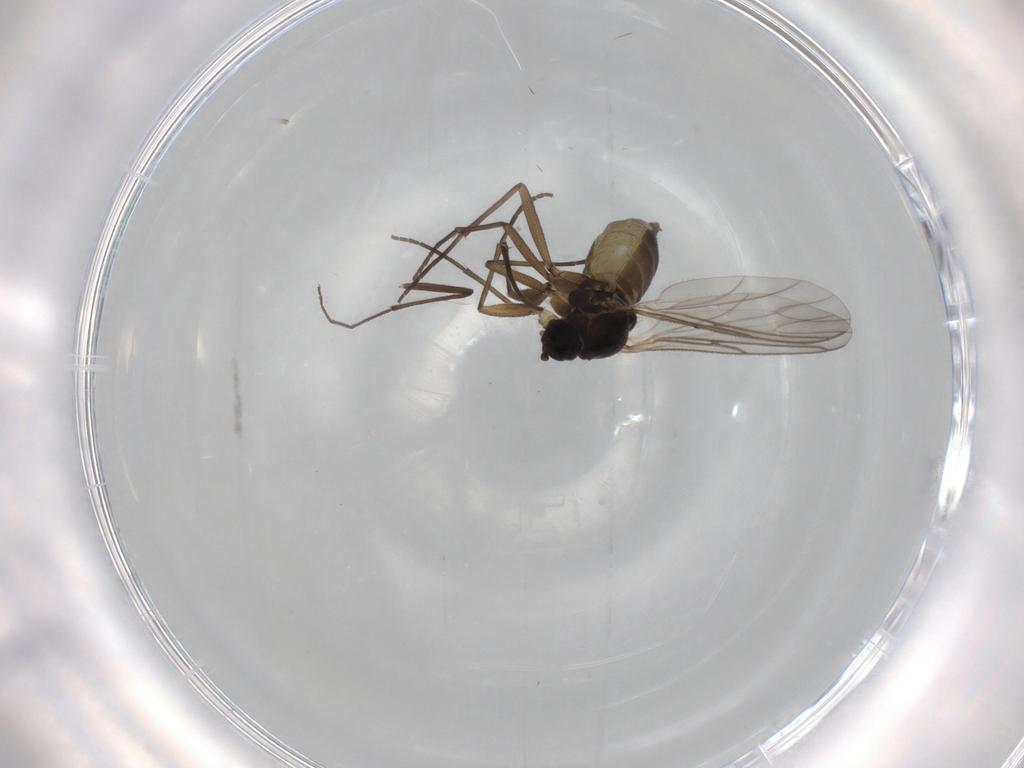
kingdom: Animalia
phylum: Arthropoda
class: Insecta
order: Diptera
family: Sciaridae
